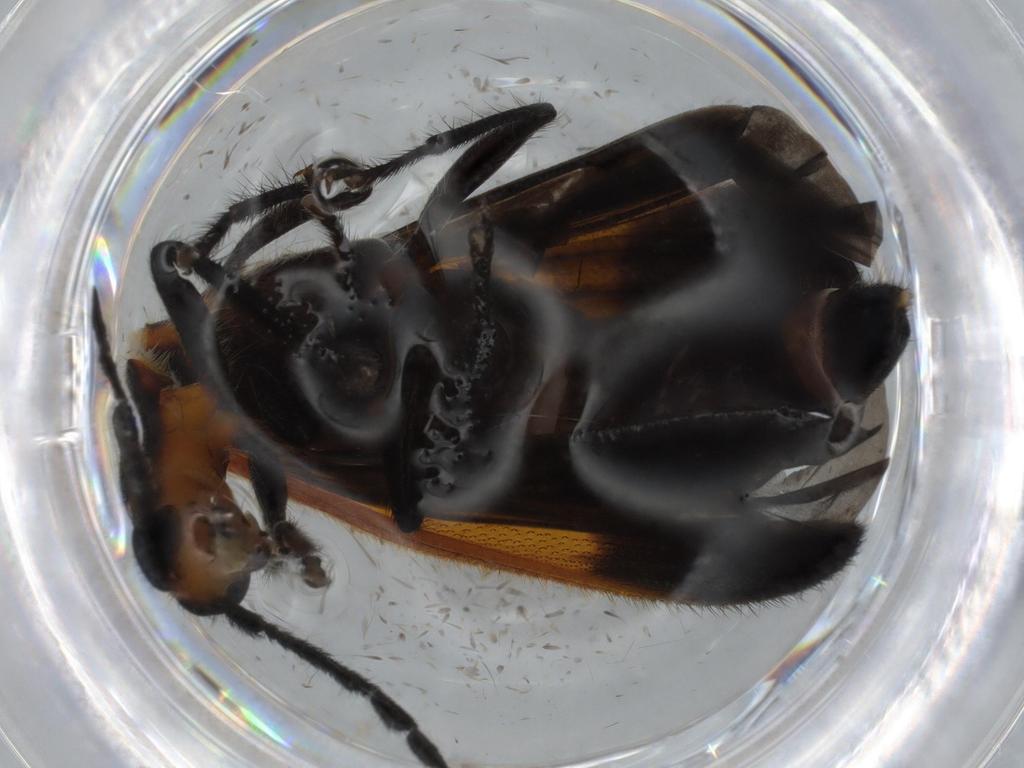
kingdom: Animalia
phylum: Arthropoda
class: Insecta
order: Coleoptera
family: Cleridae
